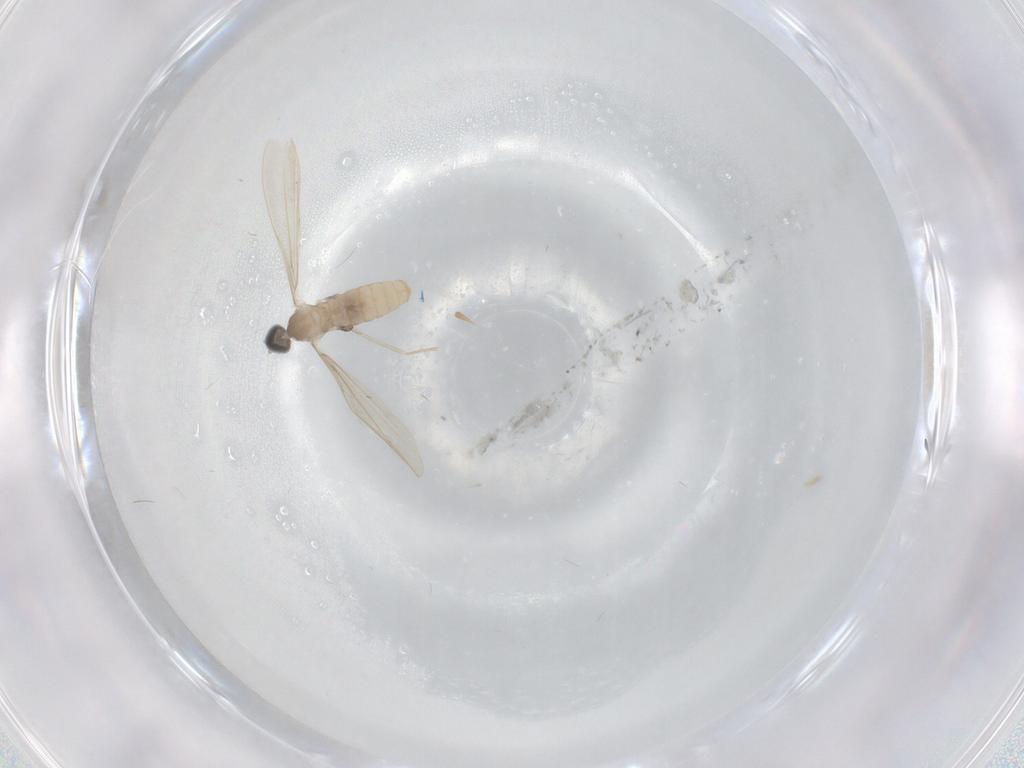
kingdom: Animalia
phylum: Arthropoda
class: Insecta
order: Diptera
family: Cecidomyiidae
